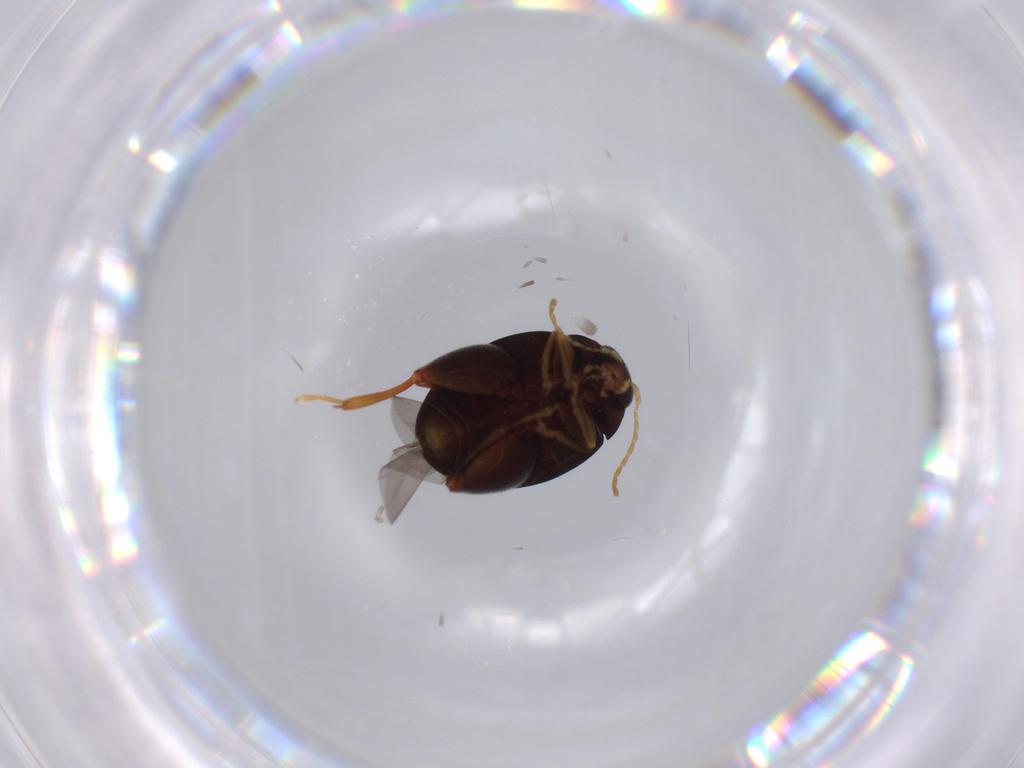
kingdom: Animalia
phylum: Arthropoda
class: Insecta
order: Coleoptera
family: Chrysomelidae
